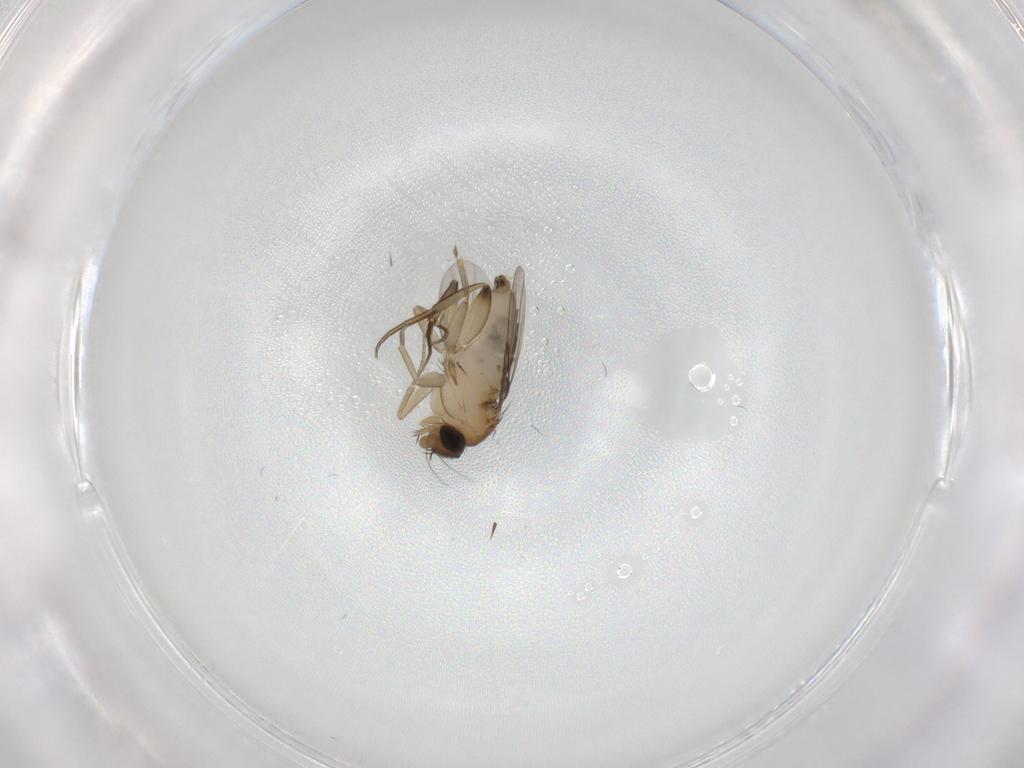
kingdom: Animalia
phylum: Arthropoda
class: Insecta
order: Diptera
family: Phoridae
